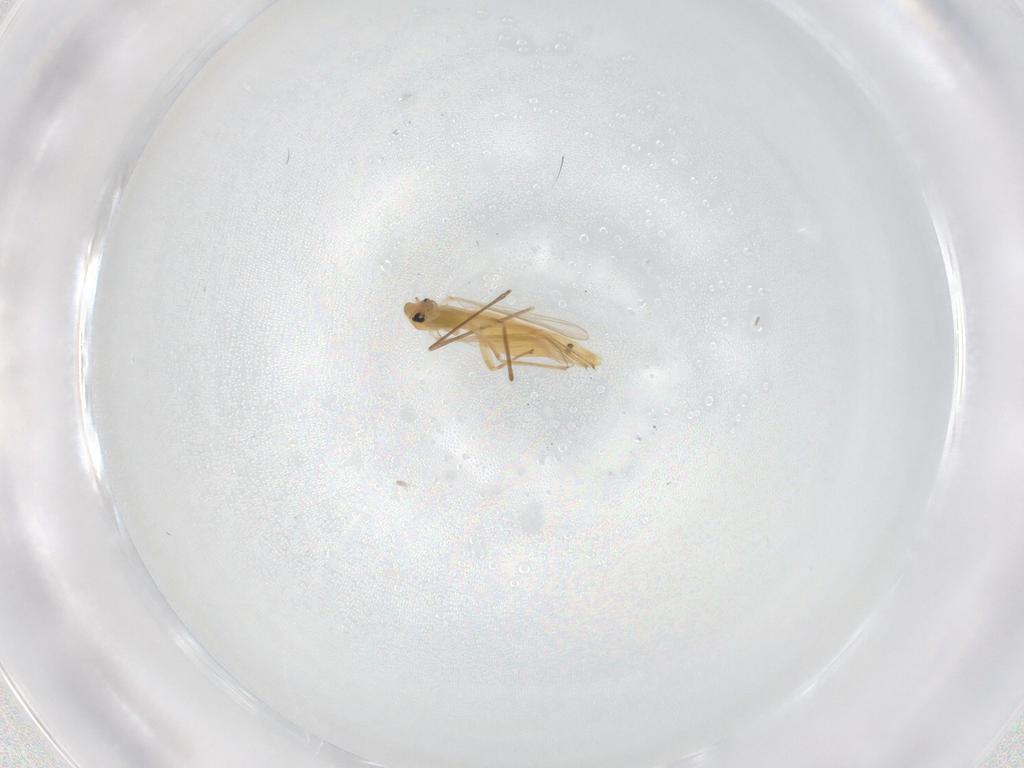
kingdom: Animalia
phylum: Arthropoda
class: Insecta
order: Diptera
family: Chironomidae
